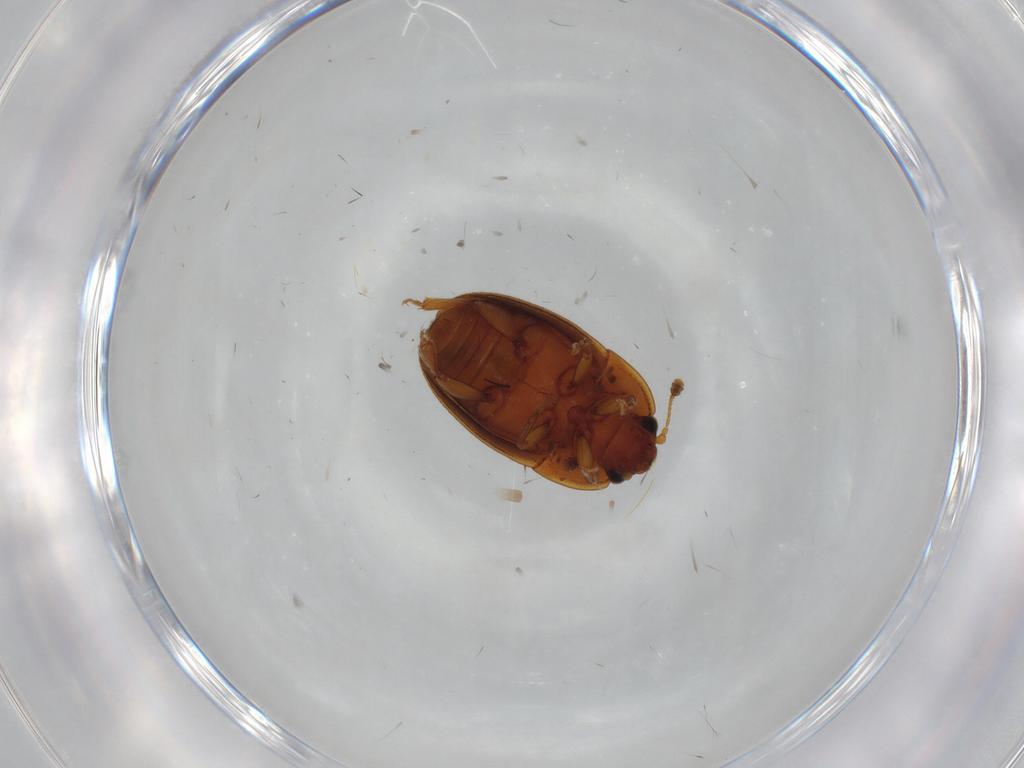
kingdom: Animalia
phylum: Arthropoda
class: Insecta
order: Coleoptera
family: Nitidulidae
